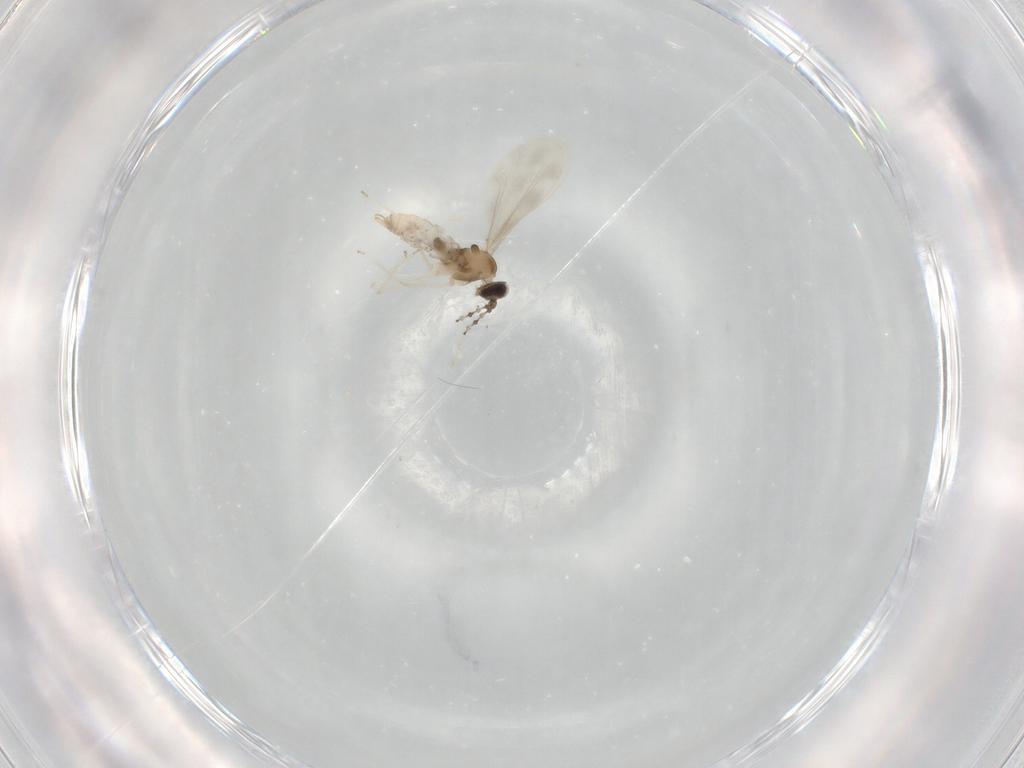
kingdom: Animalia
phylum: Arthropoda
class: Insecta
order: Diptera
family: Cecidomyiidae
